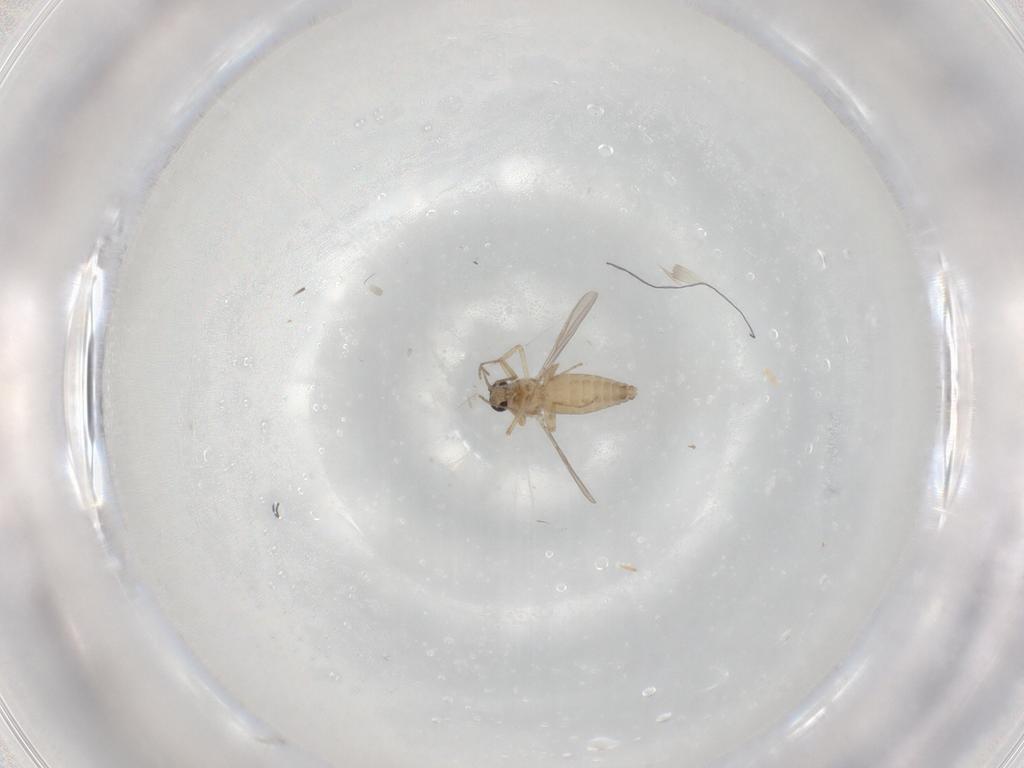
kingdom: Animalia
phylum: Arthropoda
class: Insecta
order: Diptera
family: Ceratopogonidae
